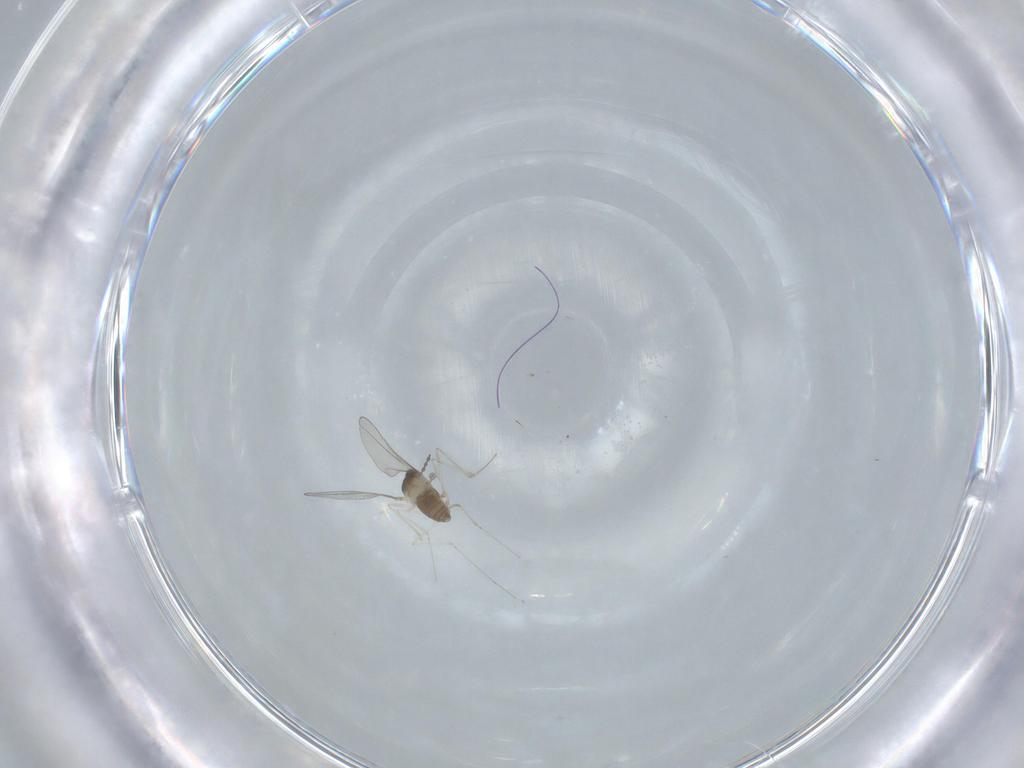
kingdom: Animalia
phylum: Arthropoda
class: Insecta
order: Diptera
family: Cecidomyiidae
